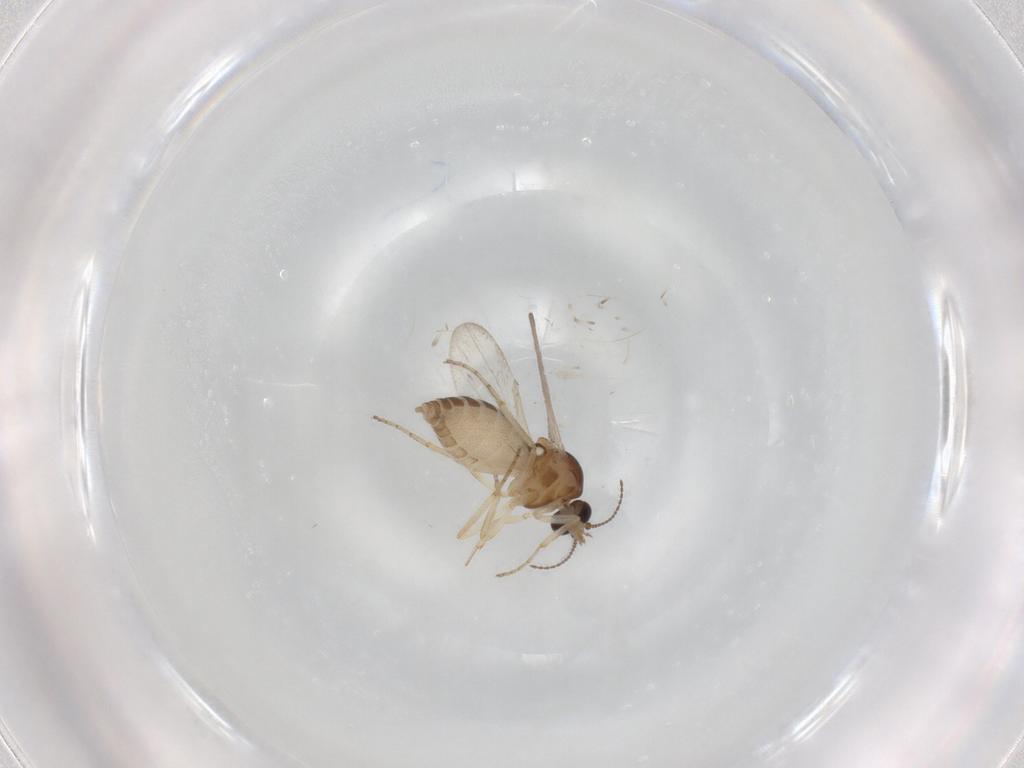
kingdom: Animalia
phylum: Arthropoda
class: Insecta
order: Diptera
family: Ceratopogonidae
